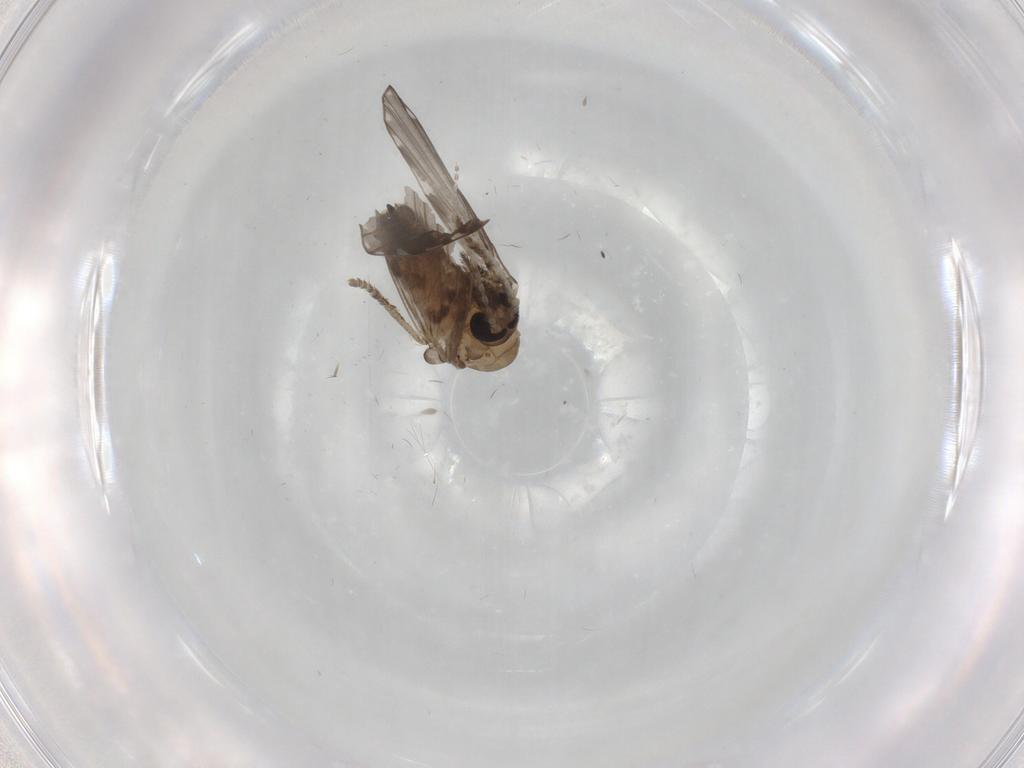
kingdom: Animalia
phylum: Arthropoda
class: Insecta
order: Diptera
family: Psychodidae
